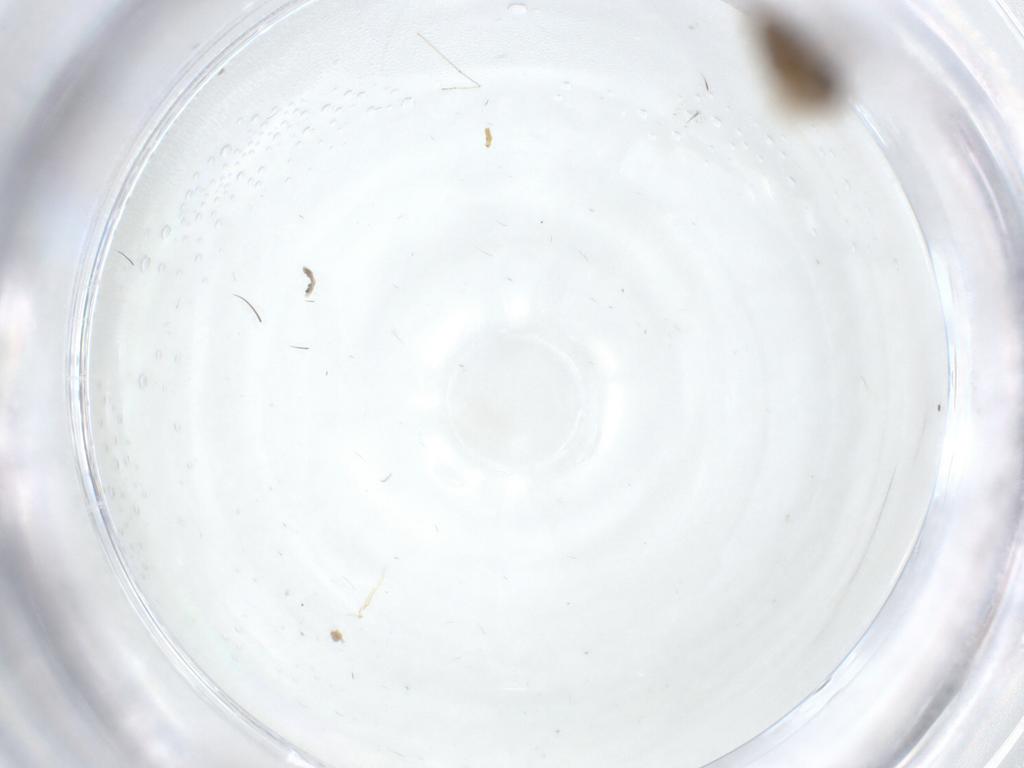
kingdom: Animalia
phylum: Arthropoda
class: Insecta
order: Diptera
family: Psychodidae
